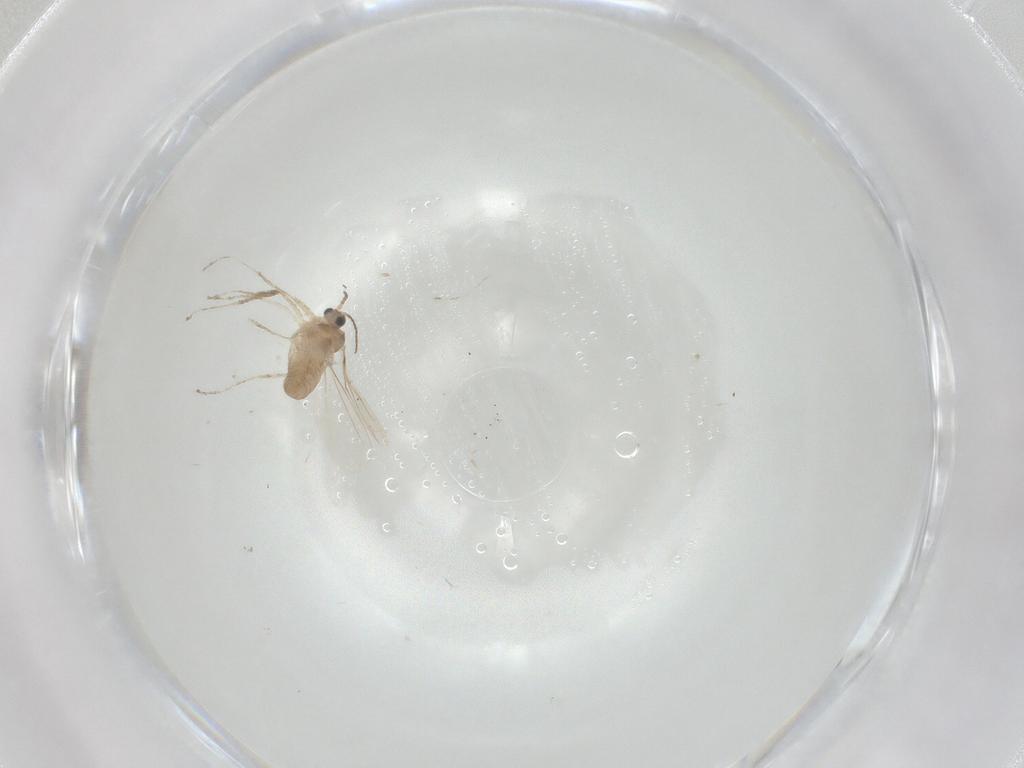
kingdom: Animalia
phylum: Arthropoda
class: Insecta
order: Diptera
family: Cecidomyiidae
